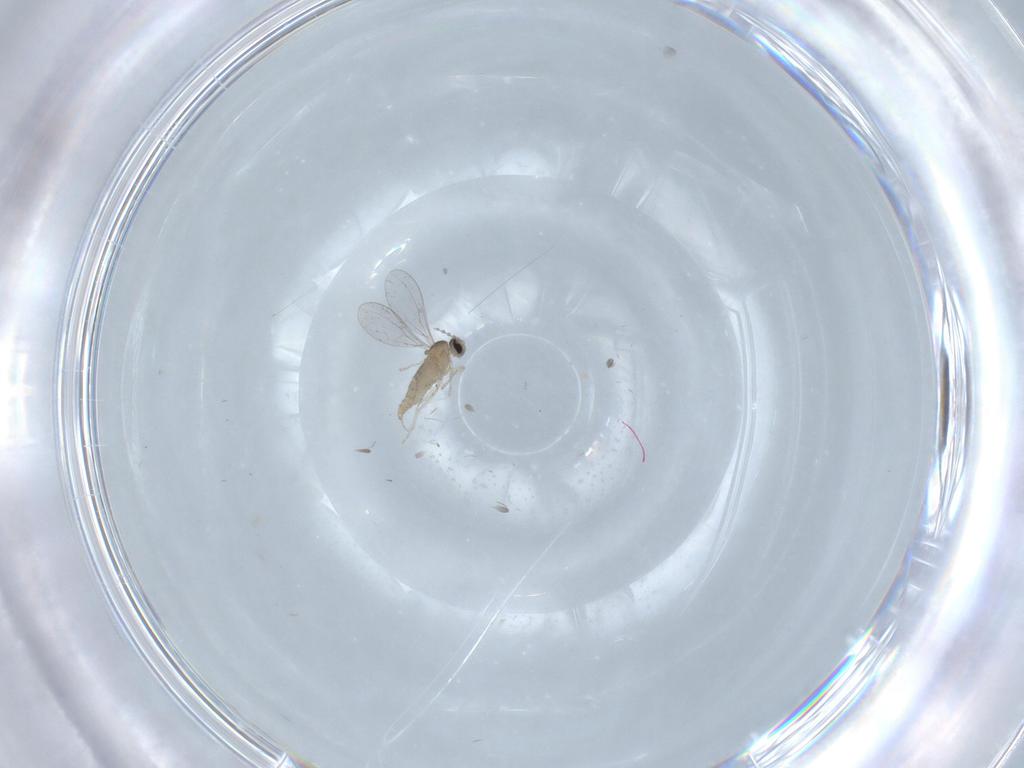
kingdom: Animalia
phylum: Arthropoda
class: Insecta
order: Diptera
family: Cecidomyiidae
